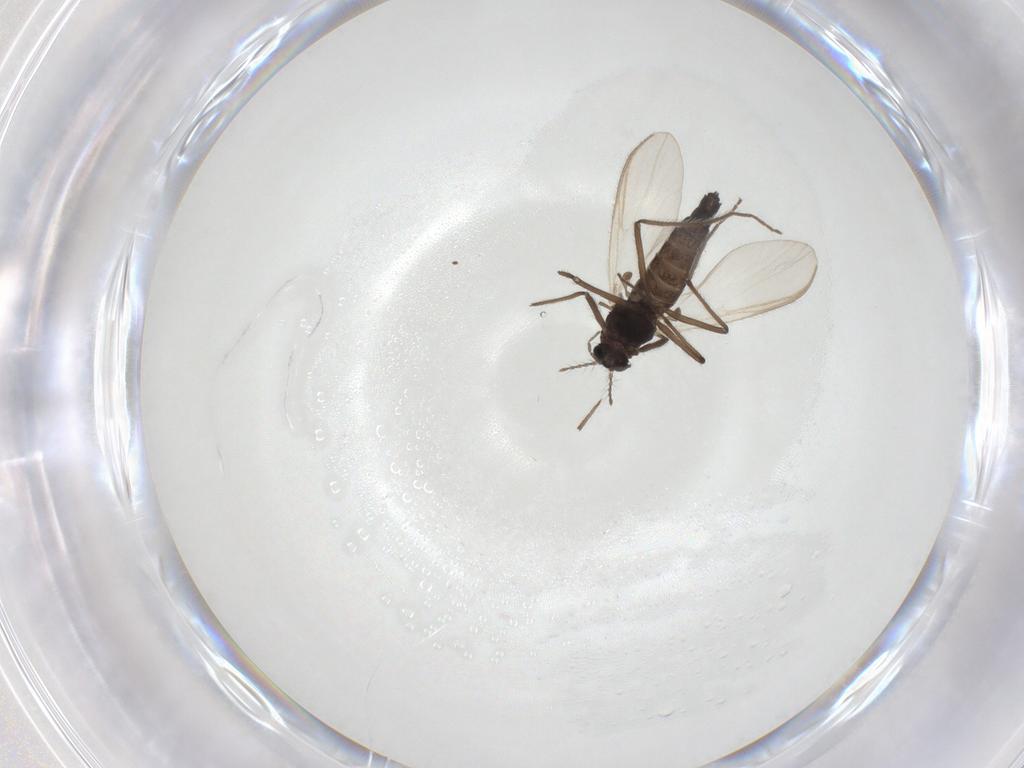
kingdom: Animalia
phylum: Arthropoda
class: Insecta
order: Diptera
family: Chironomidae
